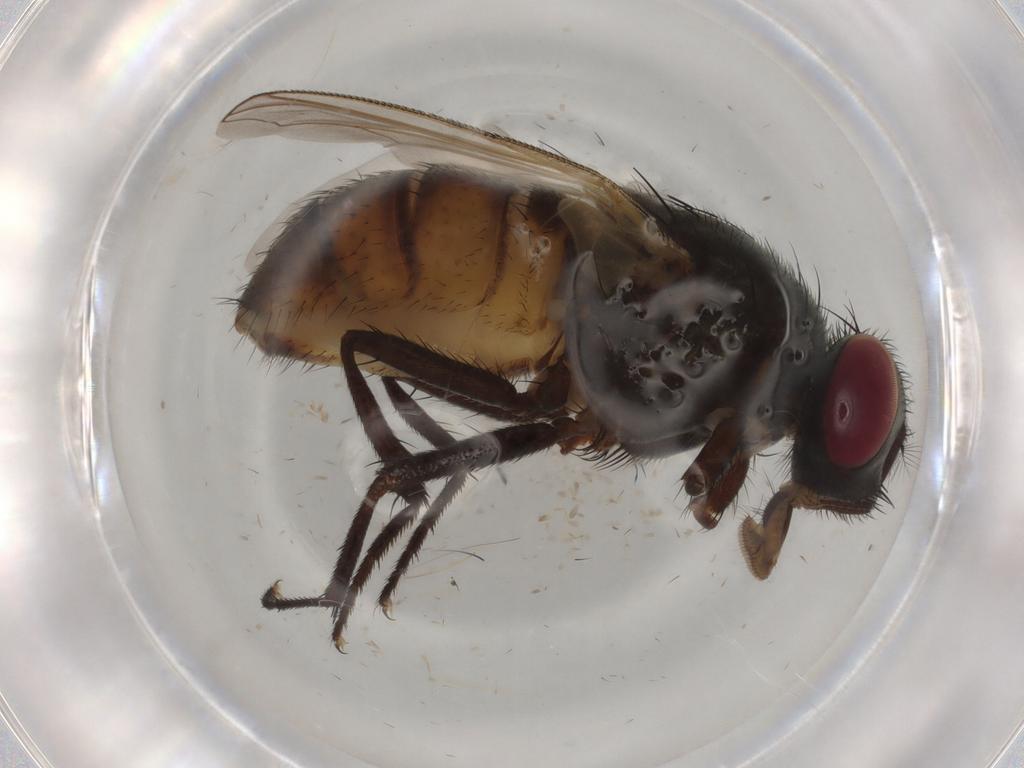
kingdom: Animalia
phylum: Arthropoda
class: Insecta
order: Diptera
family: Muscidae
